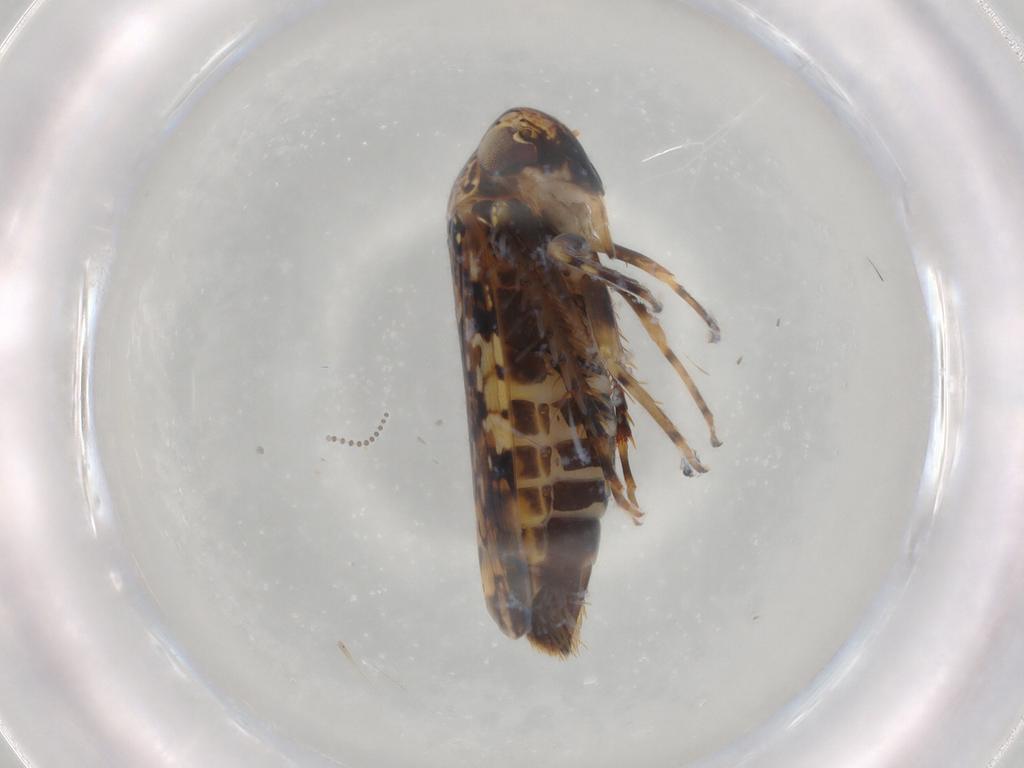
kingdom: Animalia
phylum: Arthropoda
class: Insecta
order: Hemiptera
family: Cicadellidae
